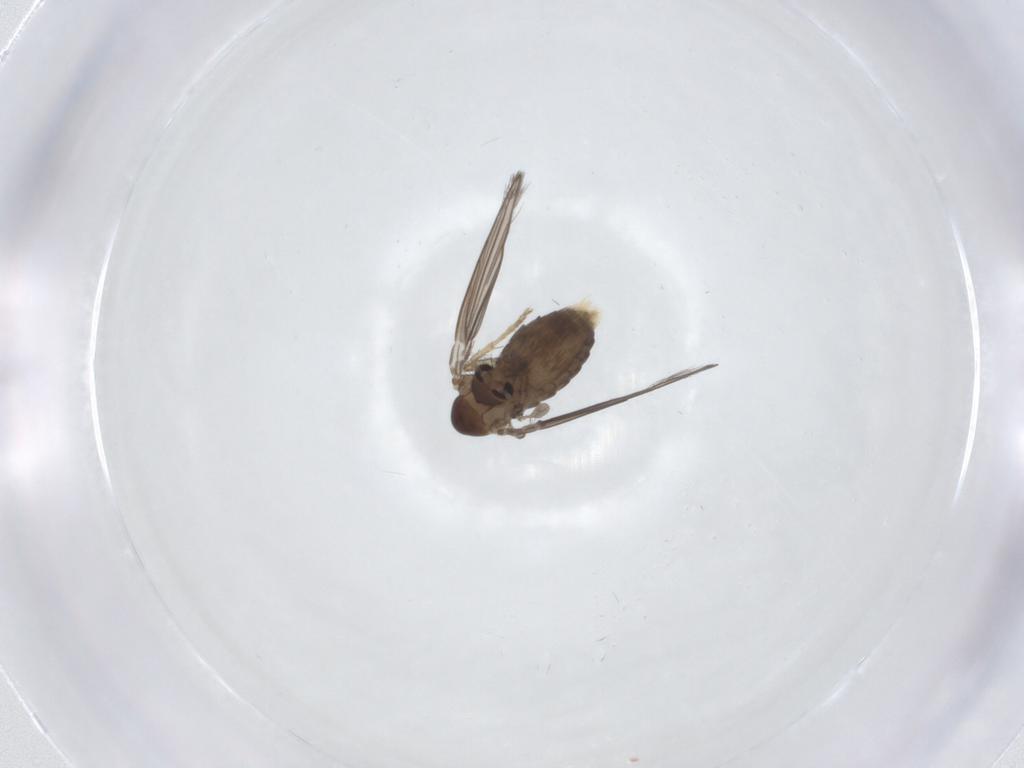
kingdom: Animalia
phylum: Arthropoda
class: Insecta
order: Diptera
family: Psychodidae
